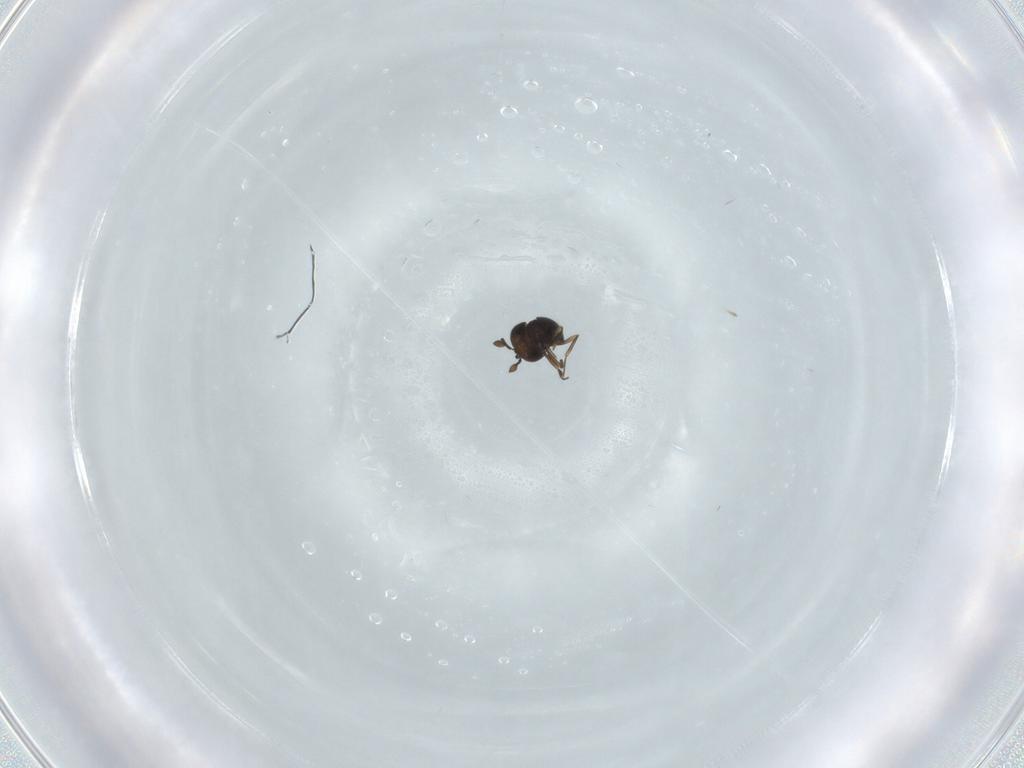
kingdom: Animalia
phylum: Arthropoda
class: Insecta
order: Hymenoptera
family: Scelionidae
